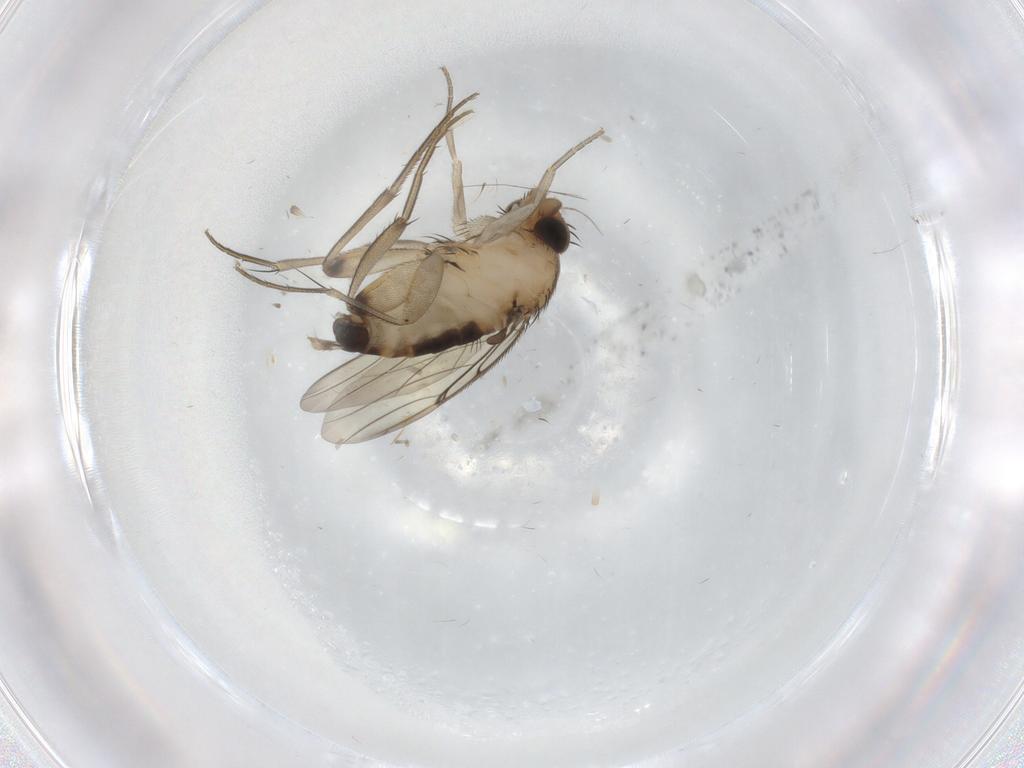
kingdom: Animalia
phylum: Arthropoda
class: Insecta
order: Diptera
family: Phoridae
